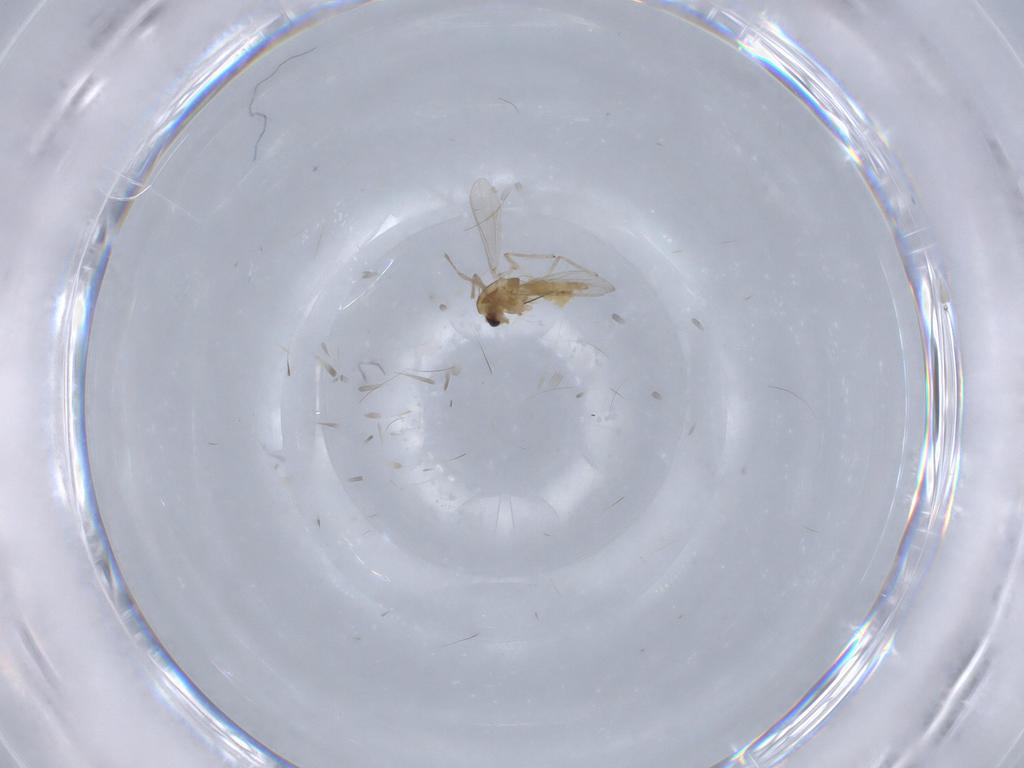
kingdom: Animalia
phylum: Arthropoda
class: Insecta
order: Diptera
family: Chironomidae
